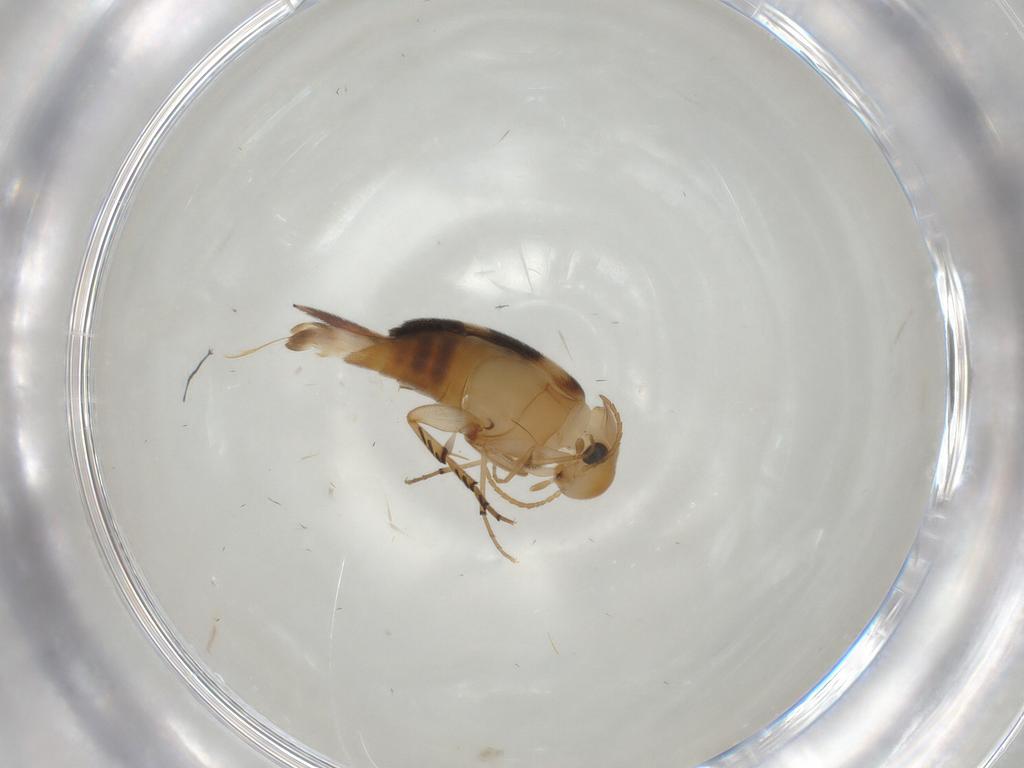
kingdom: Animalia
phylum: Arthropoda
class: Insecta
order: Coleoptera
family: Mordellidae
